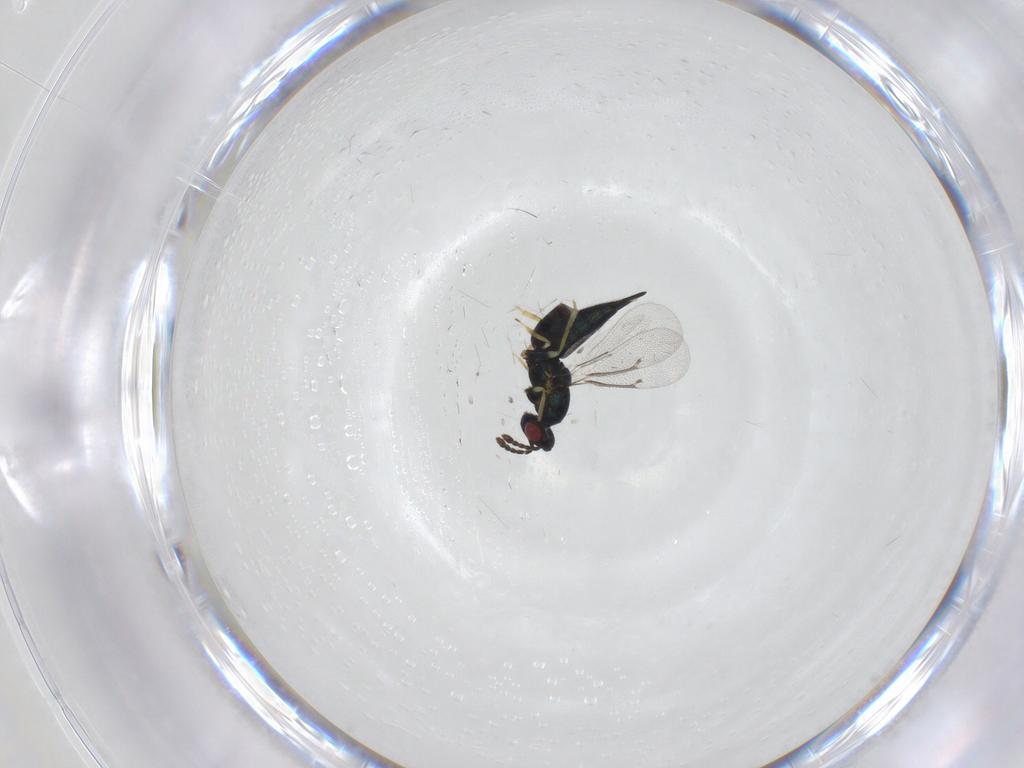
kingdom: Animalia
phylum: Arthropoda
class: Insecta
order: Hymenoptera
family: Eulophidae
